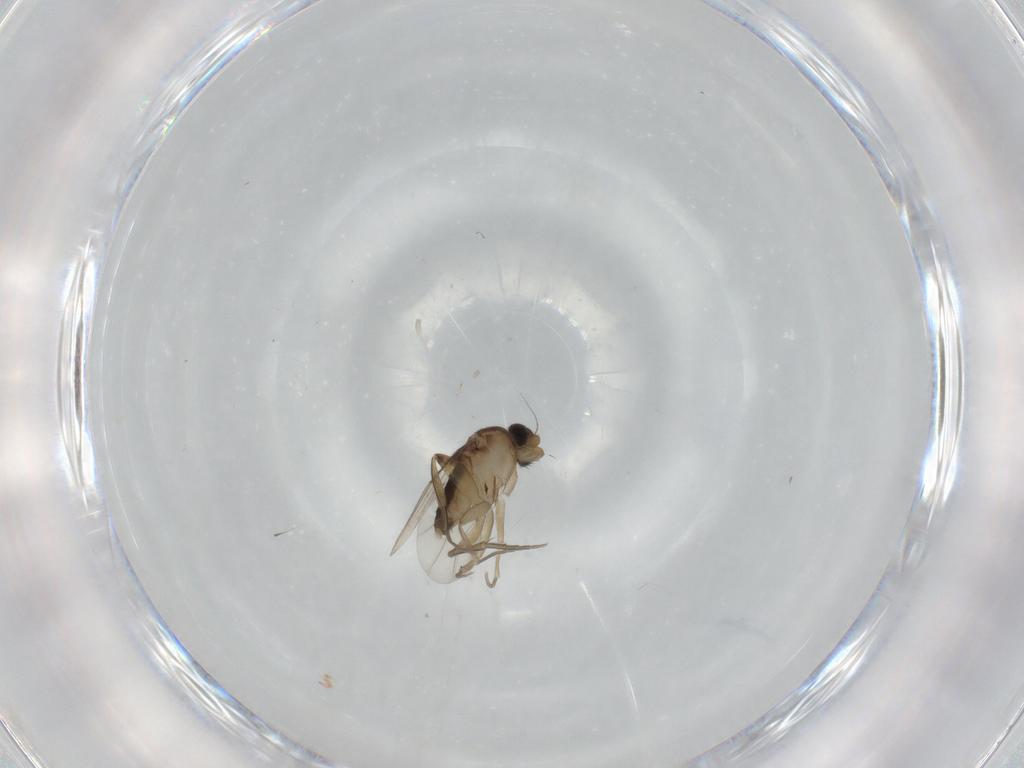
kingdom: Animalia
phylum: Arthropoda
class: Insecta
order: Diptera
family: Phoridae
